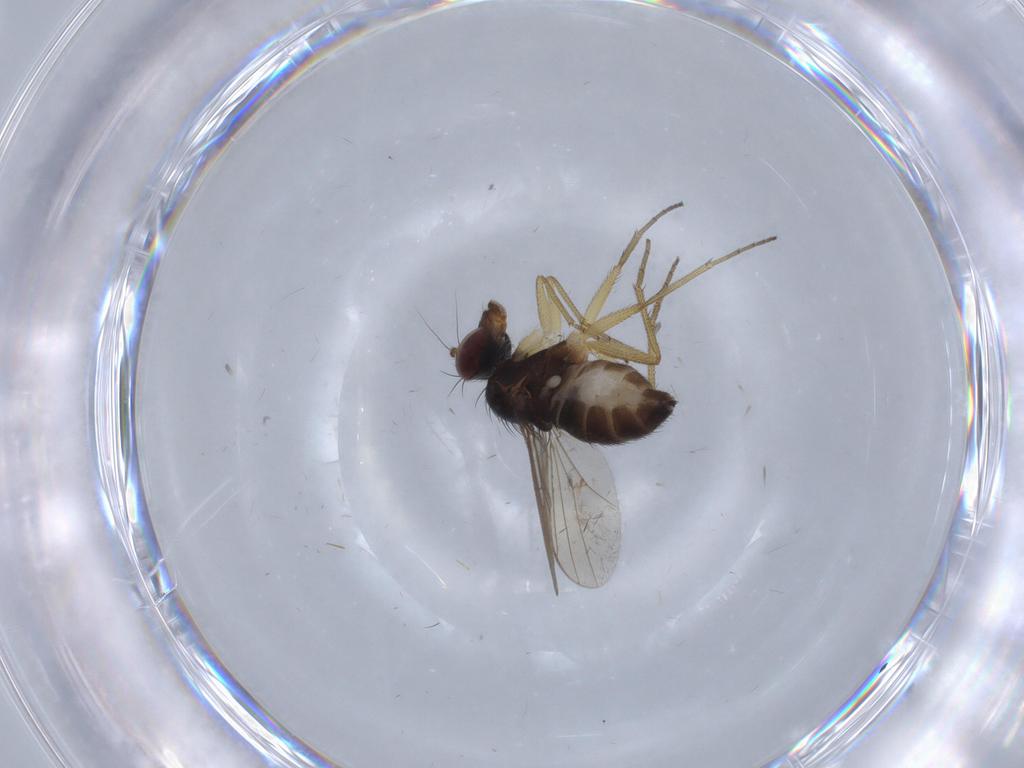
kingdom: Animalia
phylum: Arthropoda
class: Insecta
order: Diptera
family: Dolichopodidae
